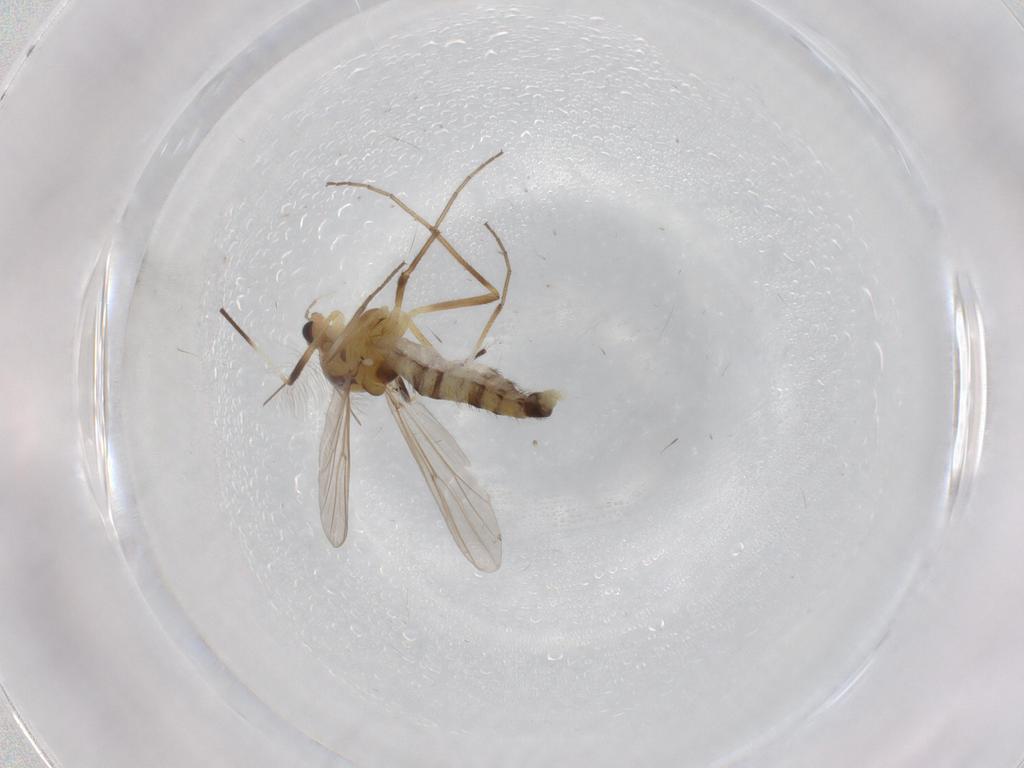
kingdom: Animalia
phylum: Arthropoda
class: Insecta
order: Diptera
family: Chironomidae
